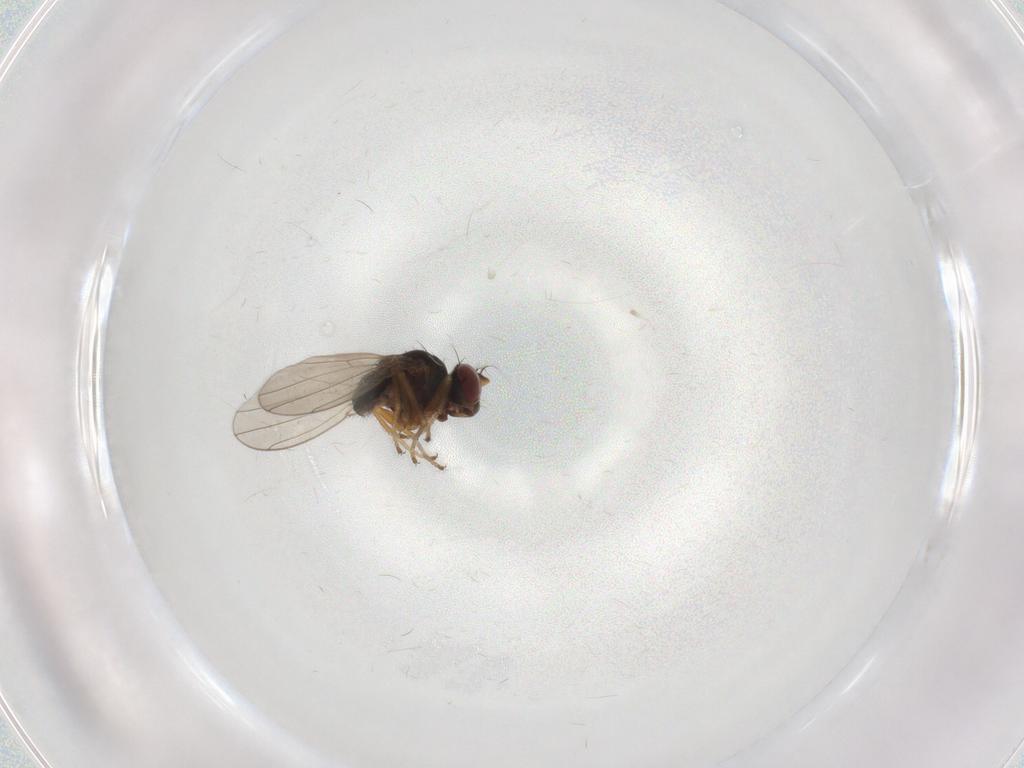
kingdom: Animalia
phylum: Arthropoda
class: Insecta
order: Diptera
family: Ephydridae
